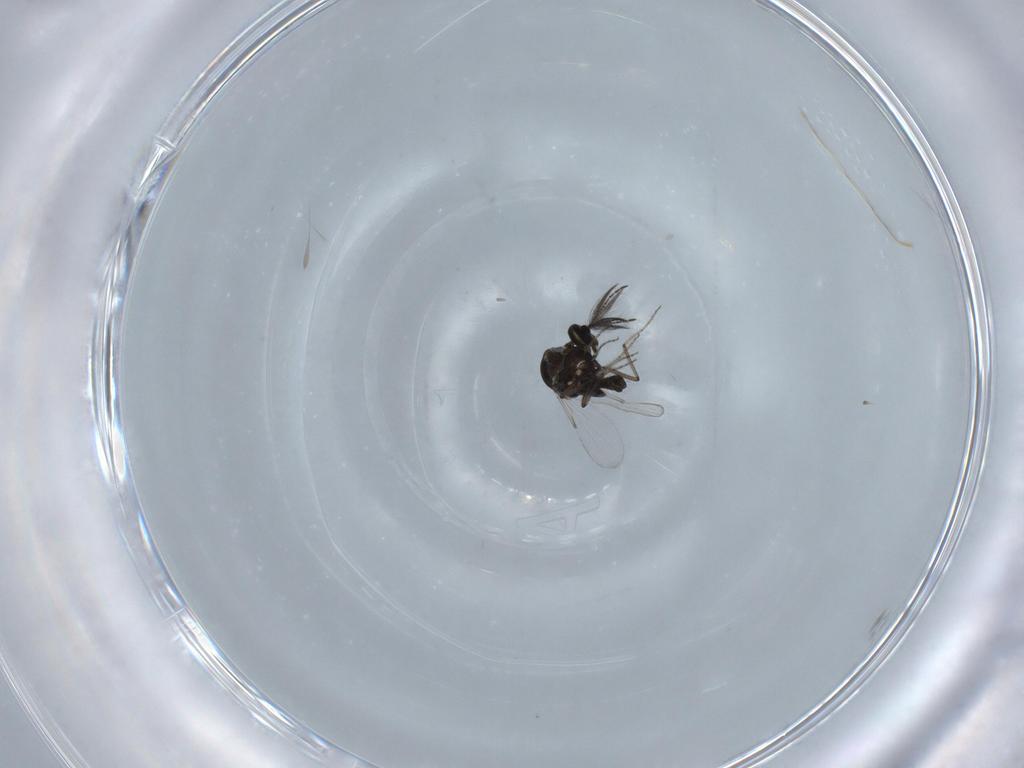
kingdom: Animalia
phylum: Arthropoda
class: Insecta
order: Diptera
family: Ceratopogonidae
